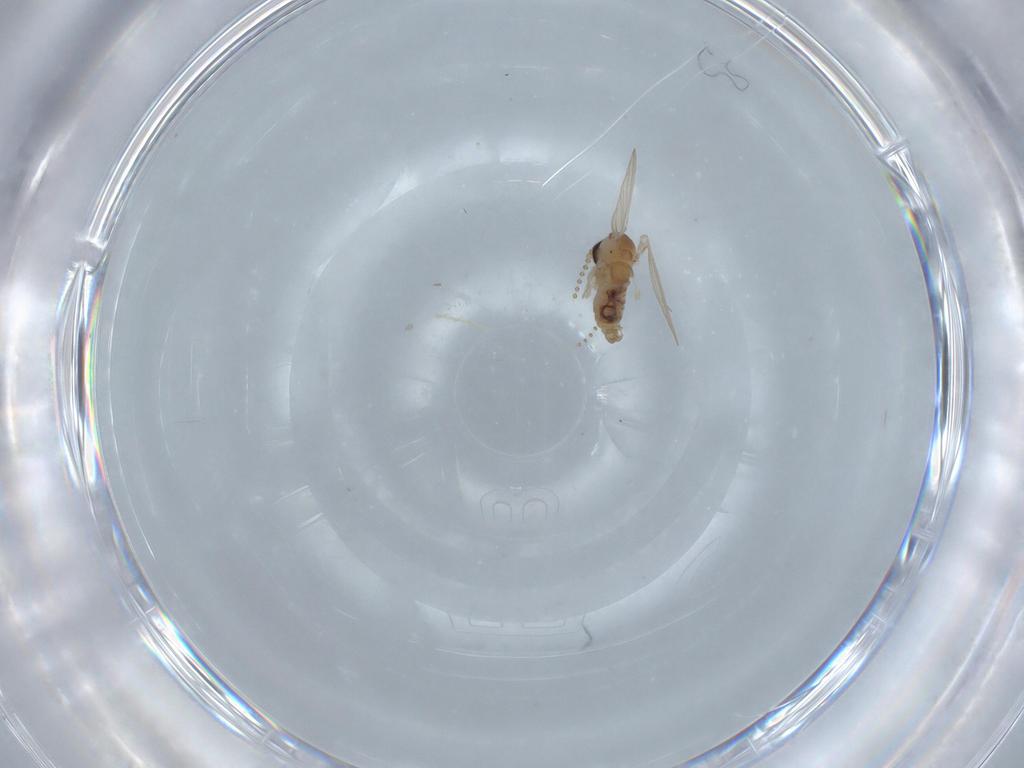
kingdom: Animalia
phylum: Arthropoda
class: Insecta
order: Diptera
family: Psychodidae
